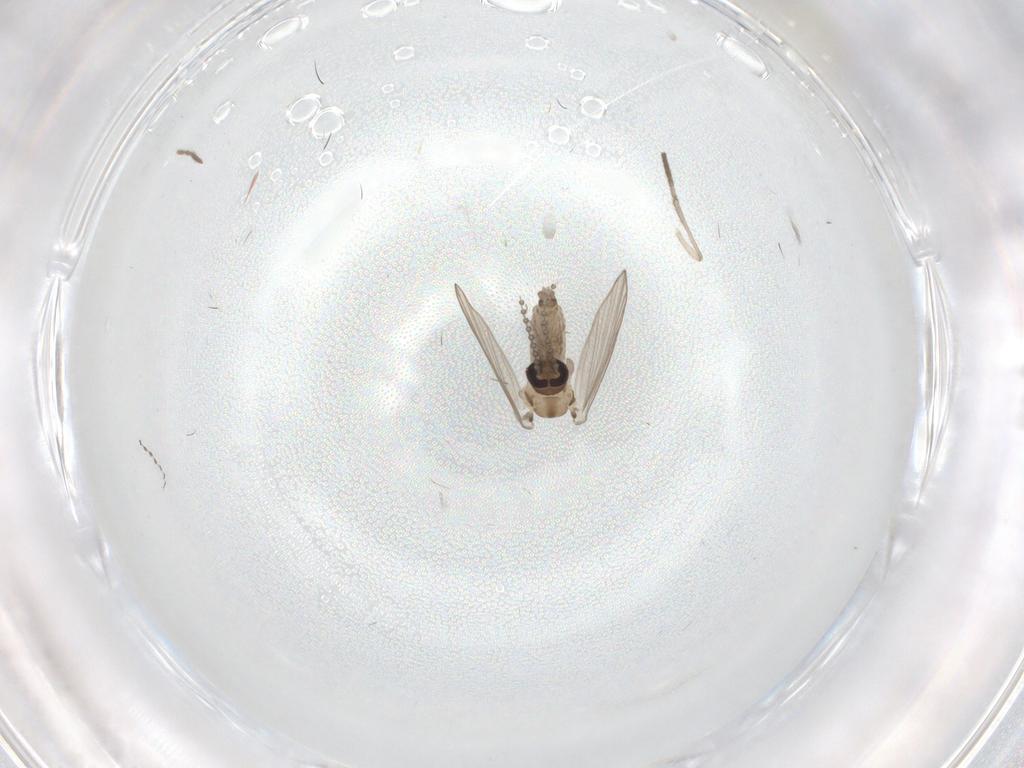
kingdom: Animalia
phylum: Arthropoda
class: Insecta
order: Diptera
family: Psychodidae
